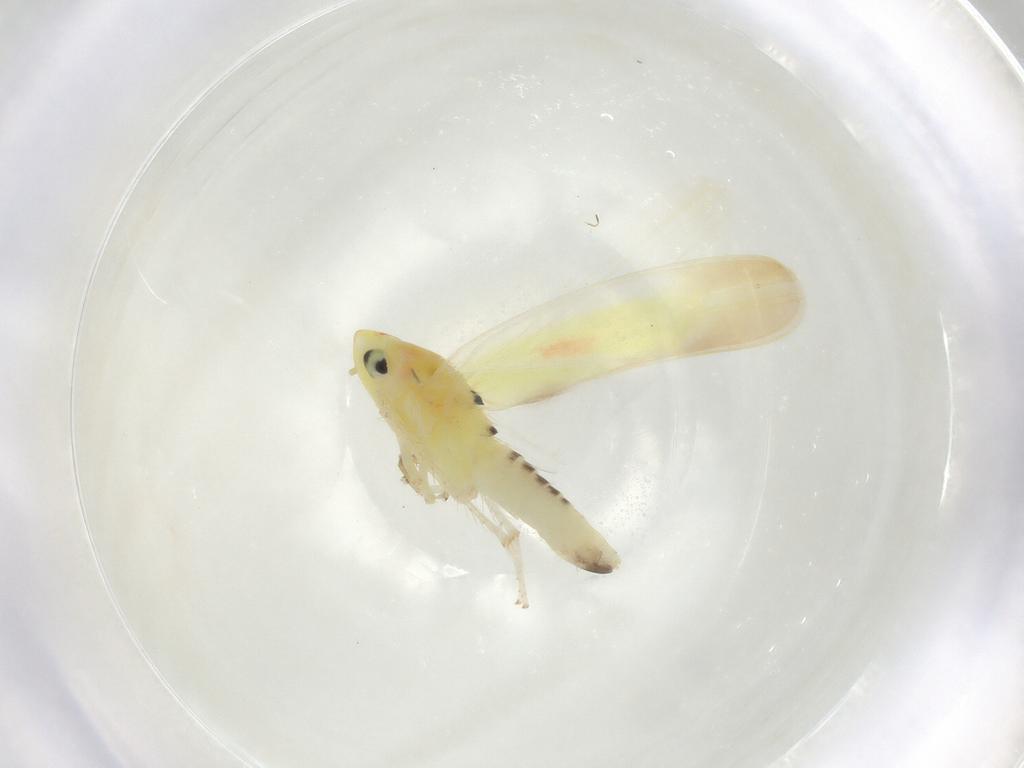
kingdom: Animalia
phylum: Arthropoda
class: Insecta
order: Hemiptera
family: Cicadellidae
